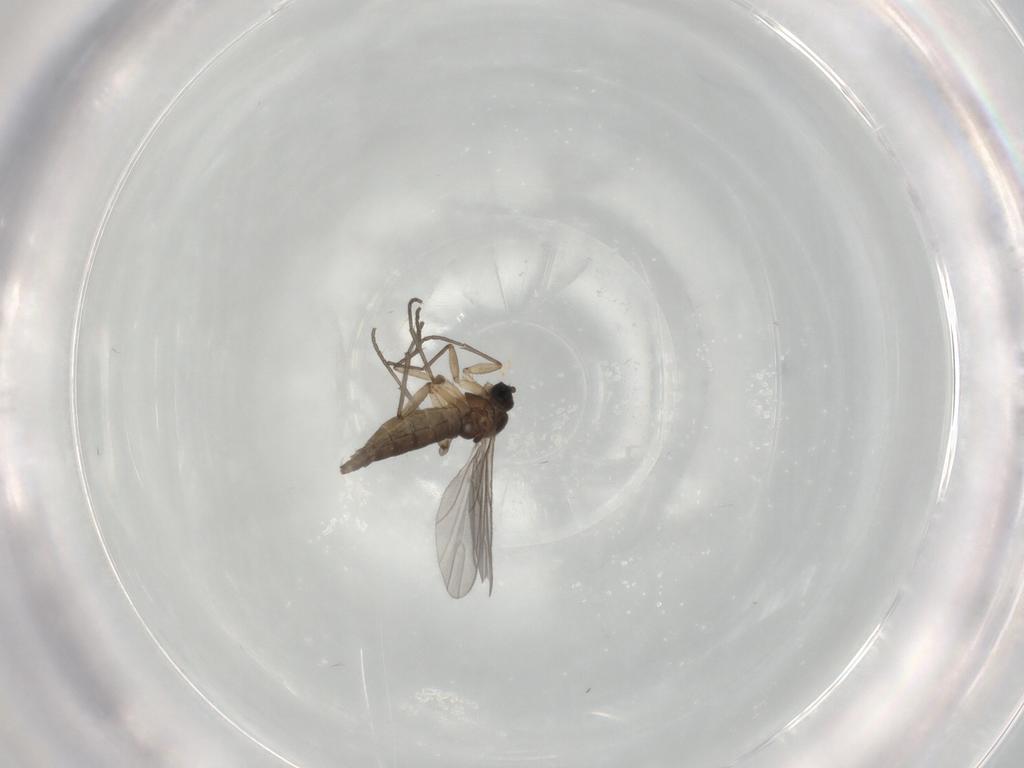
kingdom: Animalia
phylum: Arthropoda
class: Insecta
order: Diptera
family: Sciaridae
